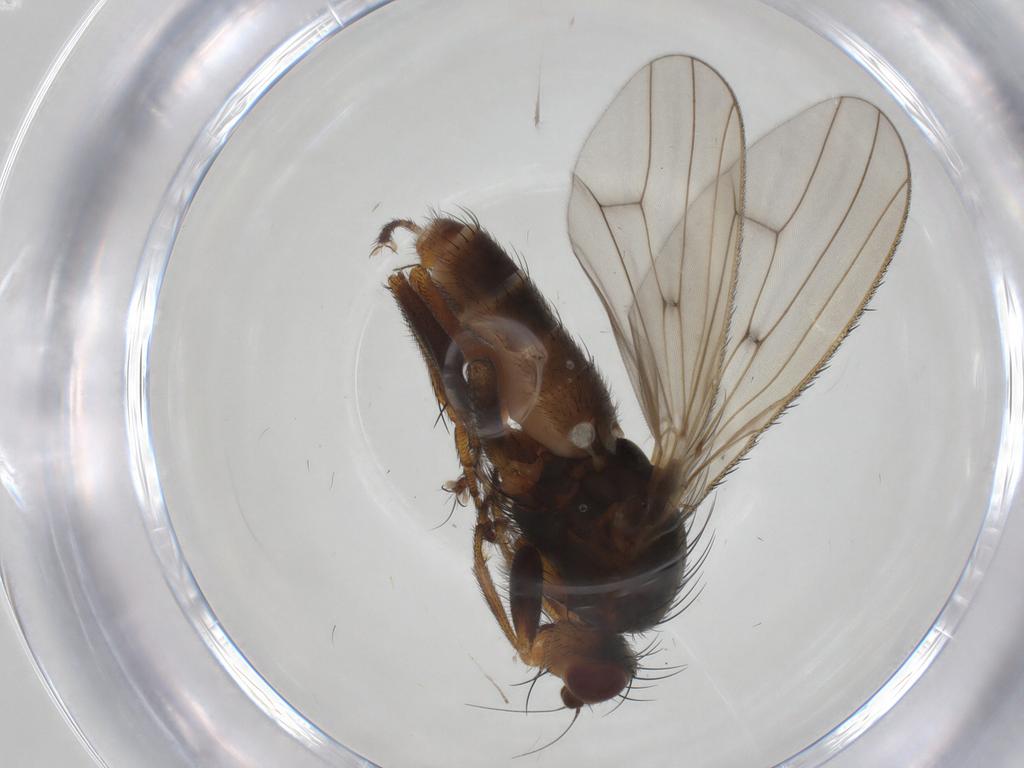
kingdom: Animalia
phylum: Arthropoda
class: Insecta
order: Diptera
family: Heleomyzidae
